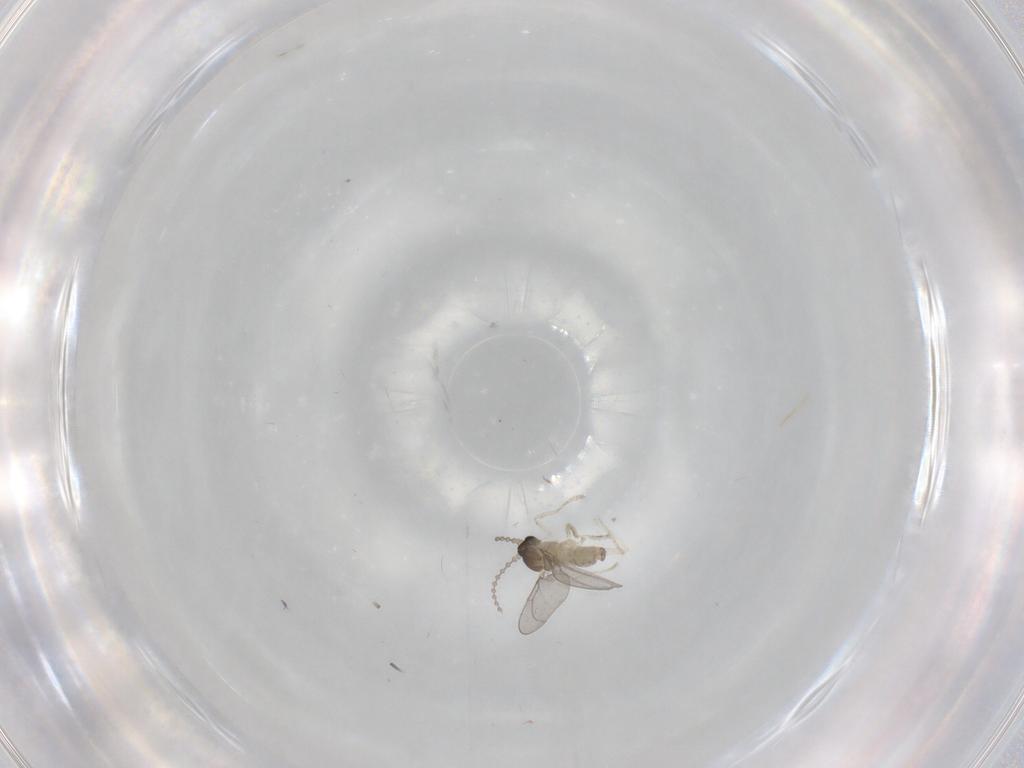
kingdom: Animalia
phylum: Arthropoda
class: Insecta
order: Diptera
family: Cecidomyiidae
